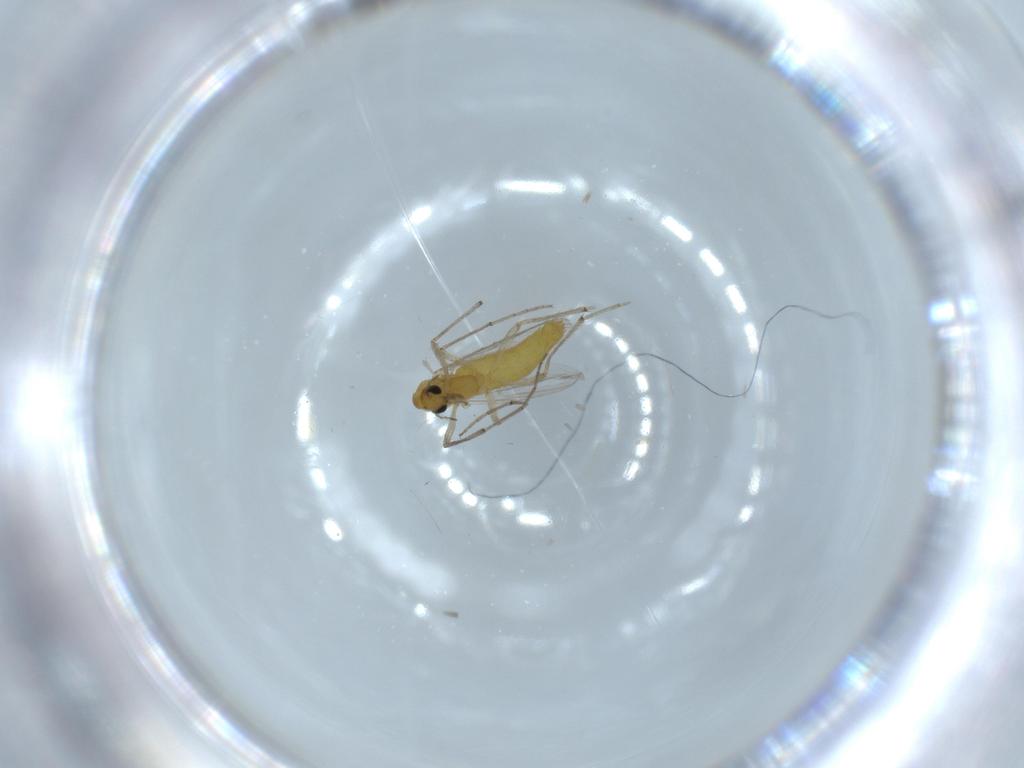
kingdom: Animalia
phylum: Arthropoda
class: Insecta
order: Diptera
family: Chironomidae
